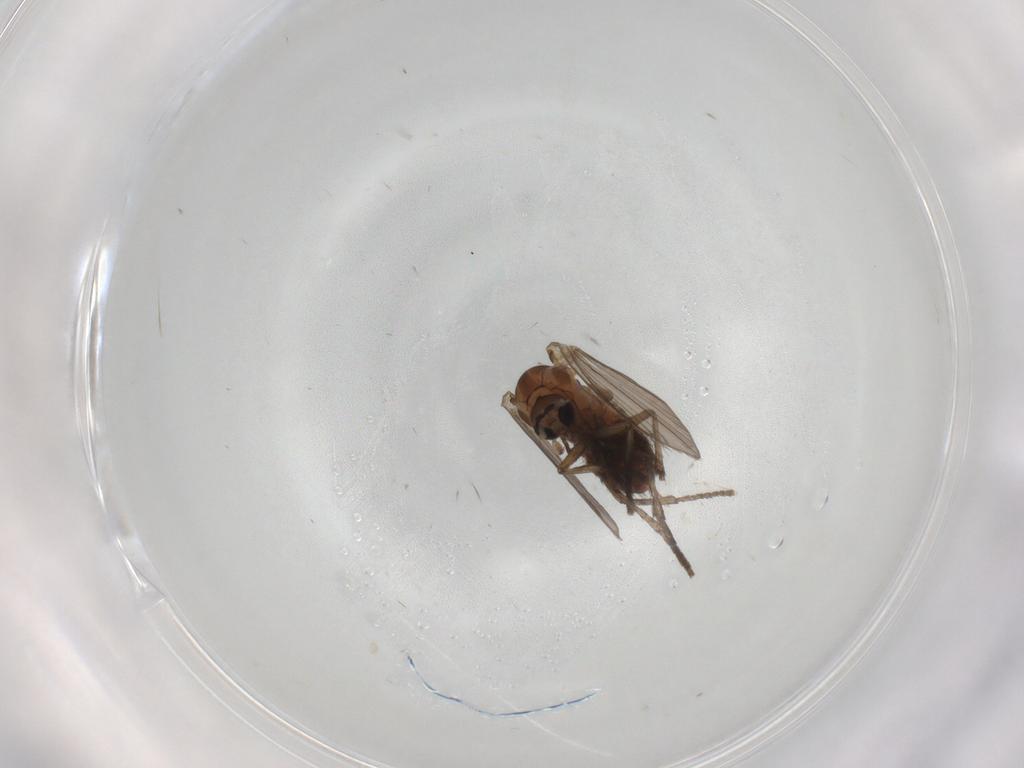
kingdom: Animalia
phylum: Arthropoda
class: Insecta
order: Diptera
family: Psychodidae
